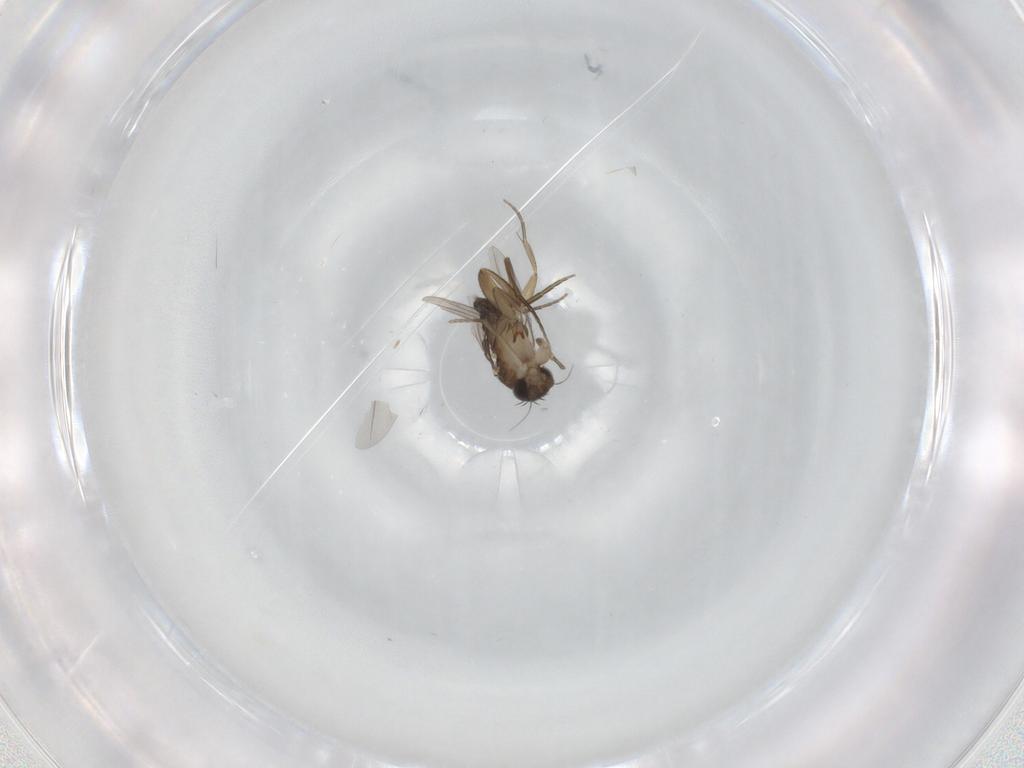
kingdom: Animalia
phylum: Arthropoda
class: Insecta
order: Diptera
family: Phoridae
